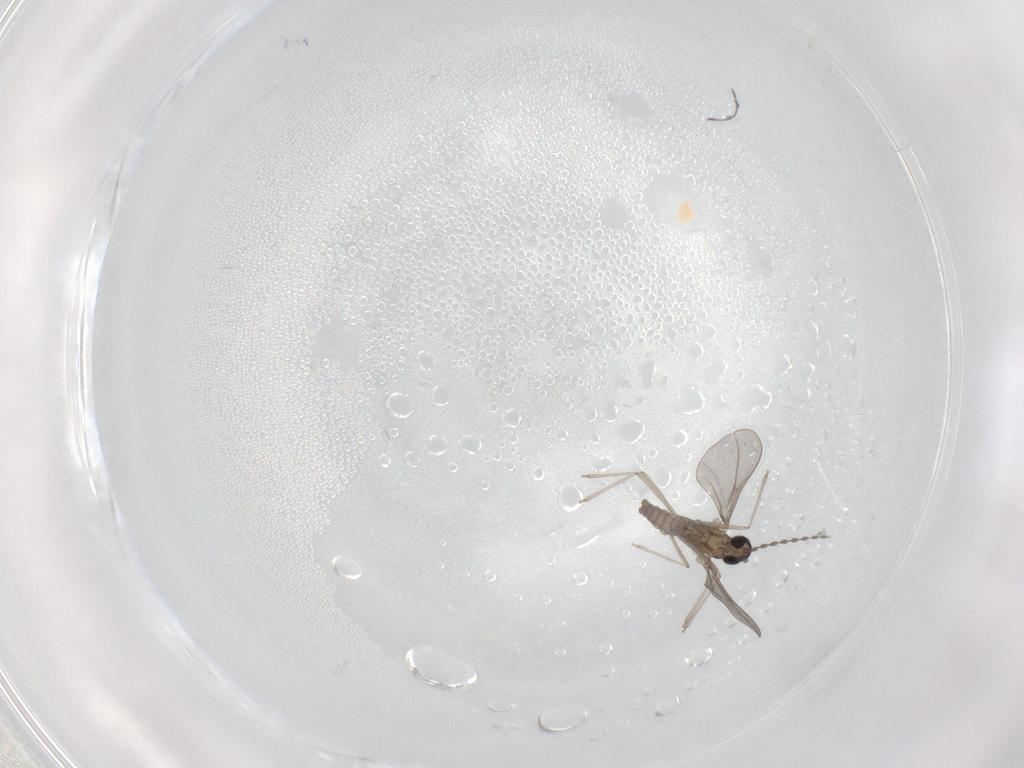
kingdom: Animalia
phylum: Arthropoda
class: Insecta
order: Diptera
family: Cecidomyiidae
